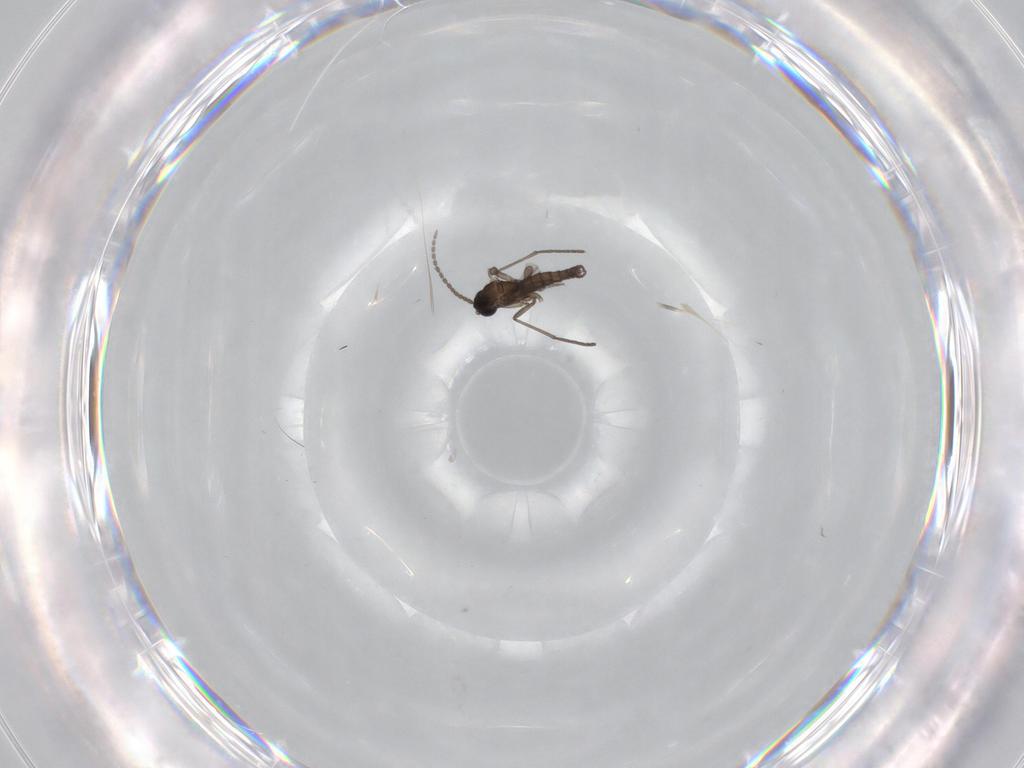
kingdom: Animalia
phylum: Arthropoda
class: Insecta
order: Diptera
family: Sciaridae
